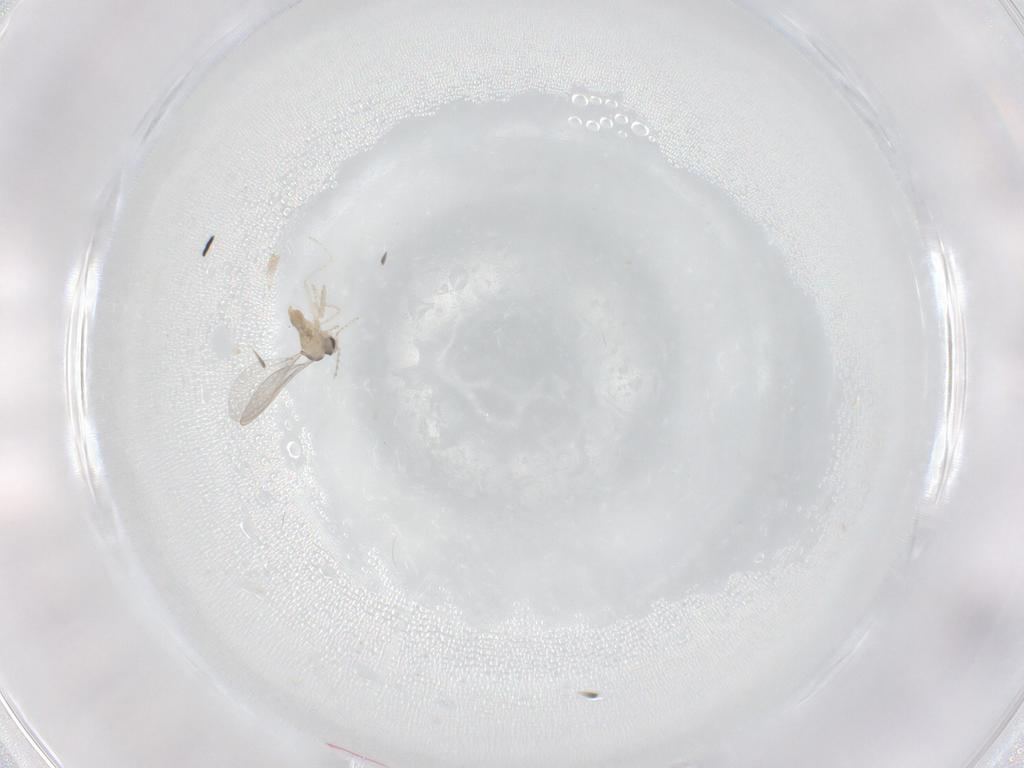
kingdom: Animalia
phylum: Arthropoda
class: Insecta
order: Diptera
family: Cecidomyiidae
